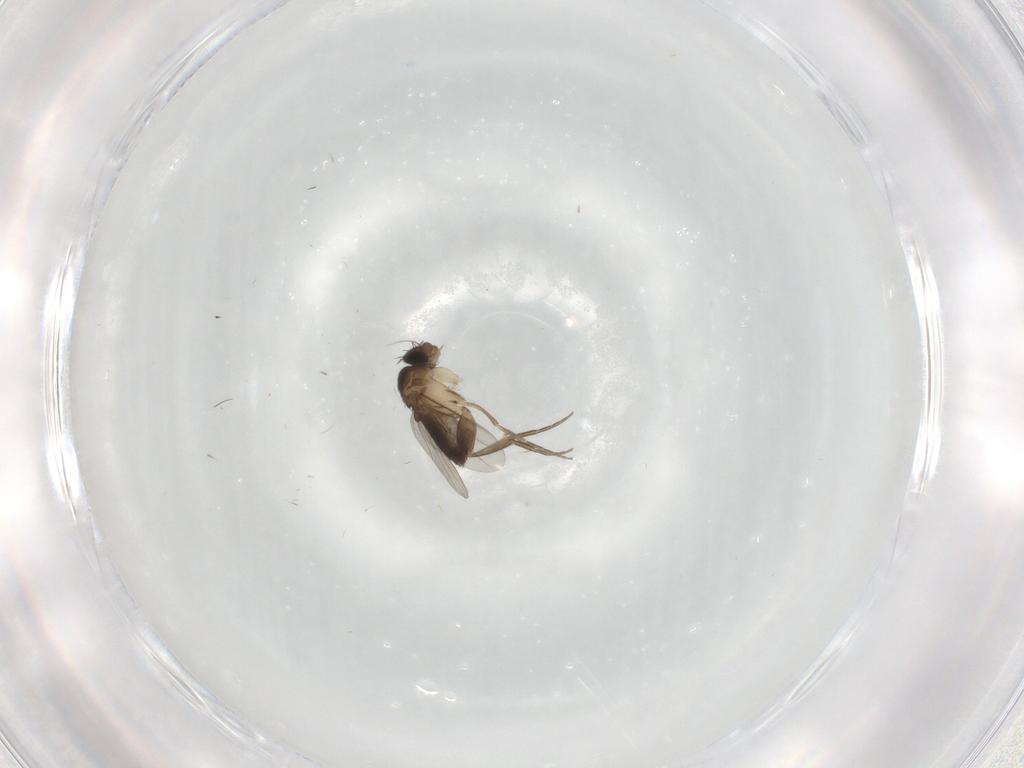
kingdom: Animalia
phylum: Arthropoda
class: Insecta
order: Diptera
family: Phoridae
